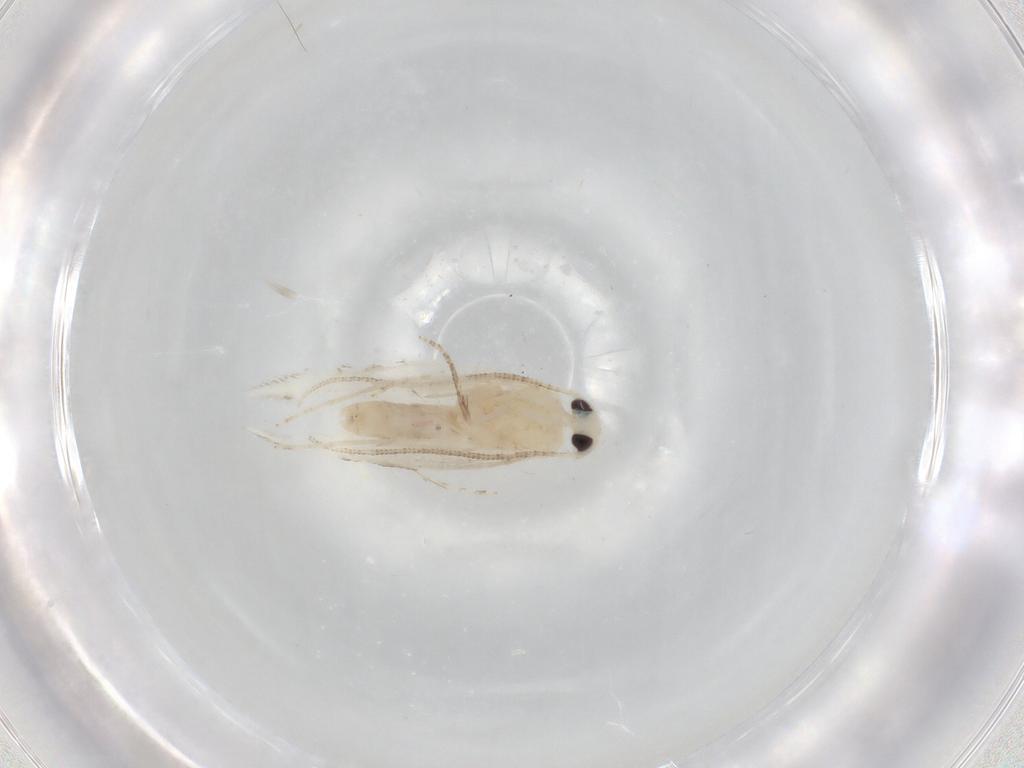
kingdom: Animalia
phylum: Arthropoda
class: Insecta
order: Lepidoptera
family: Lyonetiidae
